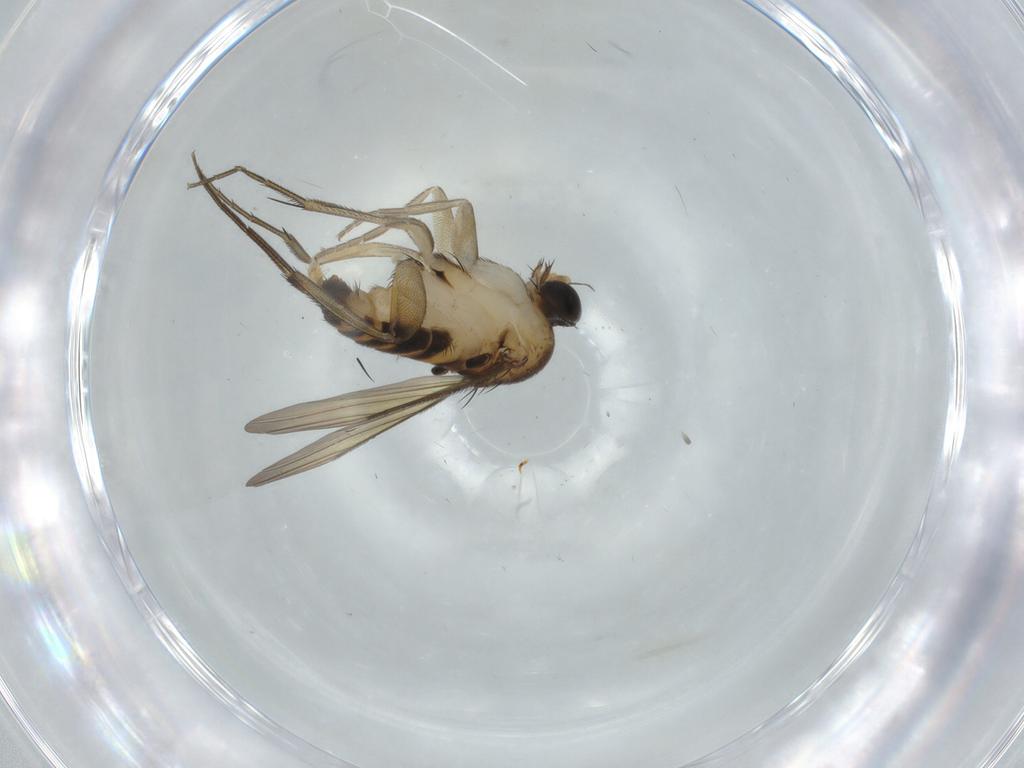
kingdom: Animalia
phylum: Arthropoda
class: Insecta
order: Diptera
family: Phoridae
